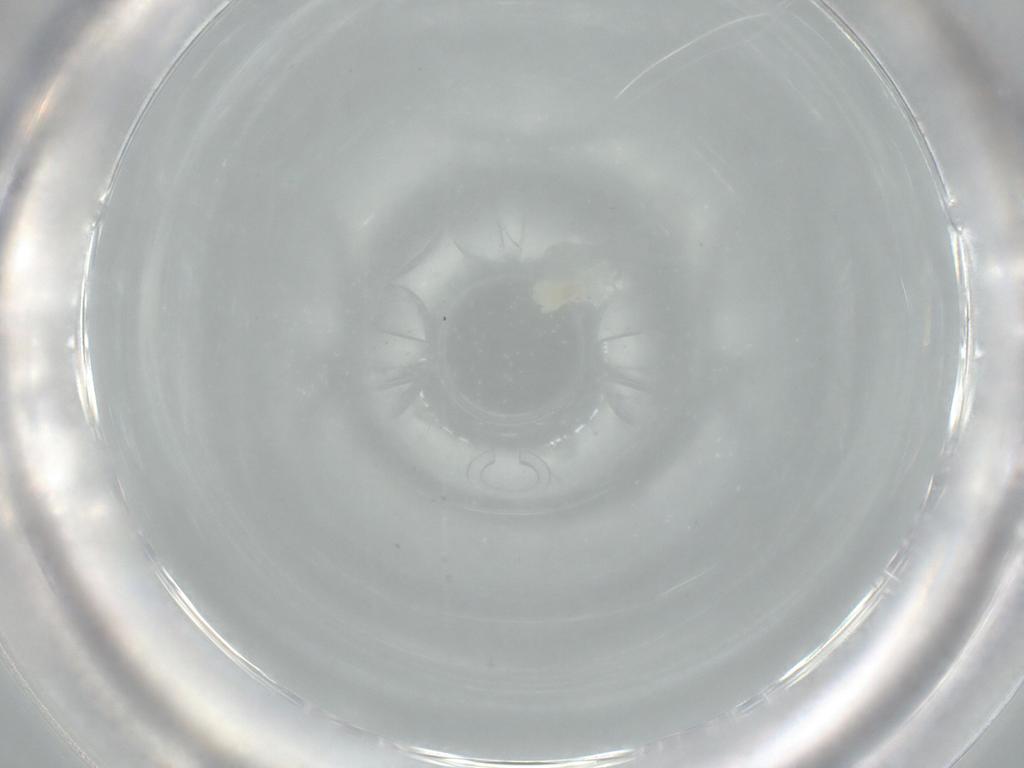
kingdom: Animalia
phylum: Arthropoda
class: Arachnida
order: Trombidiformes
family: Eupodidae
